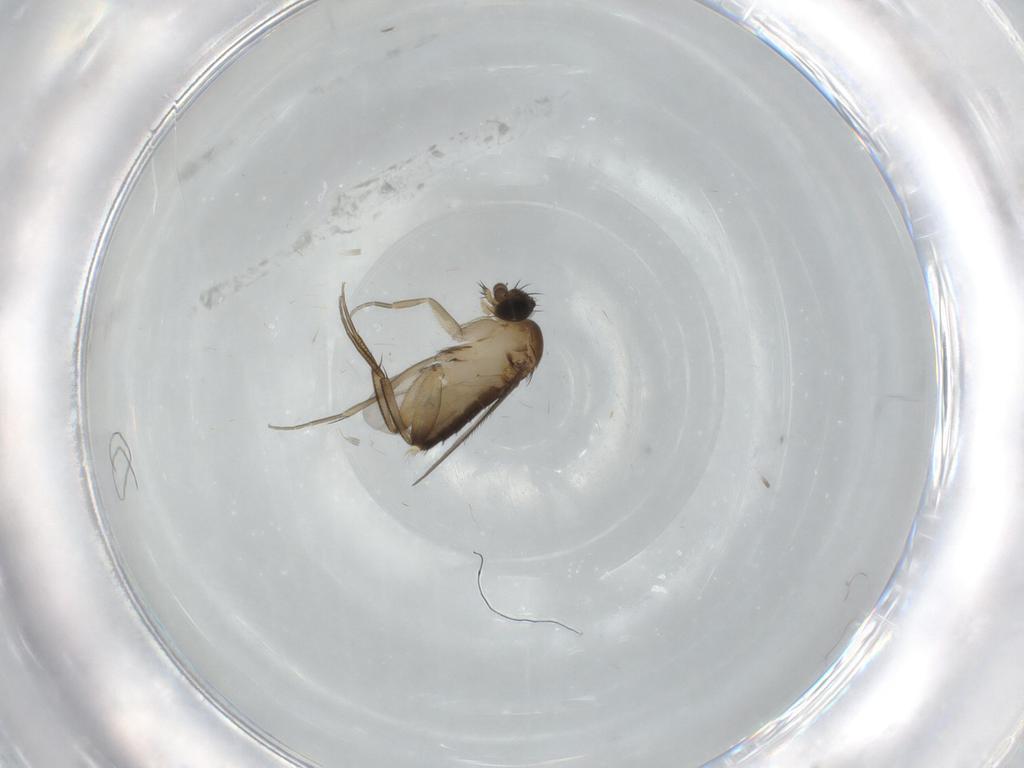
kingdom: Animalia
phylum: Arthropoda
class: Insecta
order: Diptera
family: Phoridae
